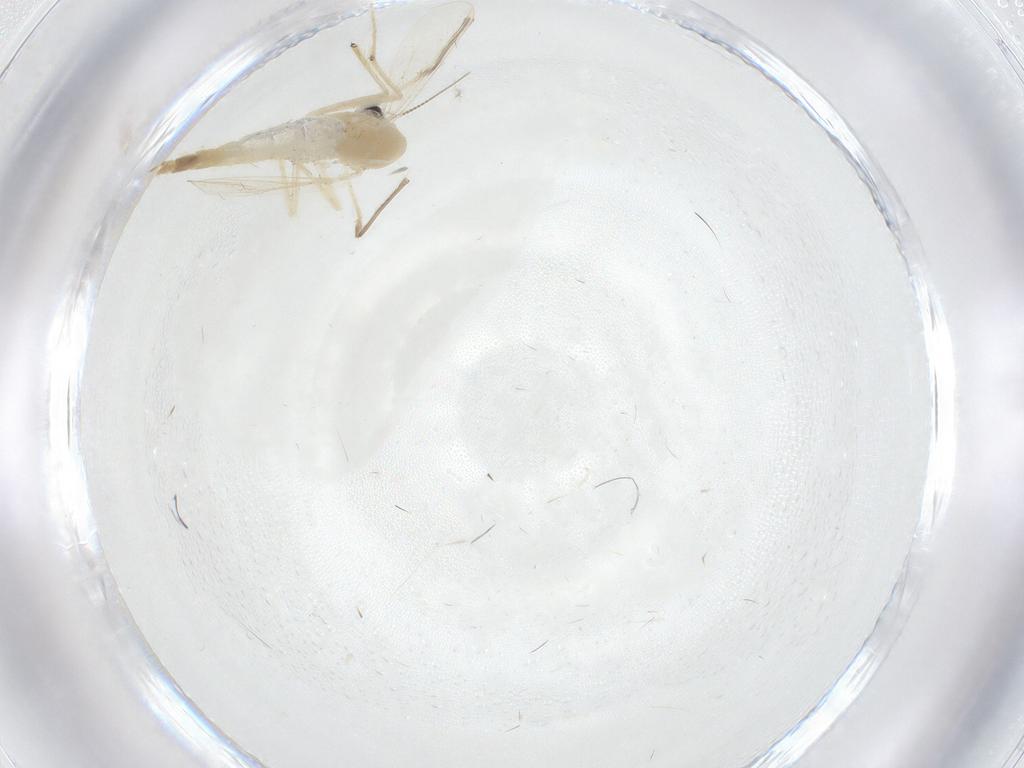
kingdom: Animalia
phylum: Arthropoda
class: Insecta
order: Diptera
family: Chironomidae
